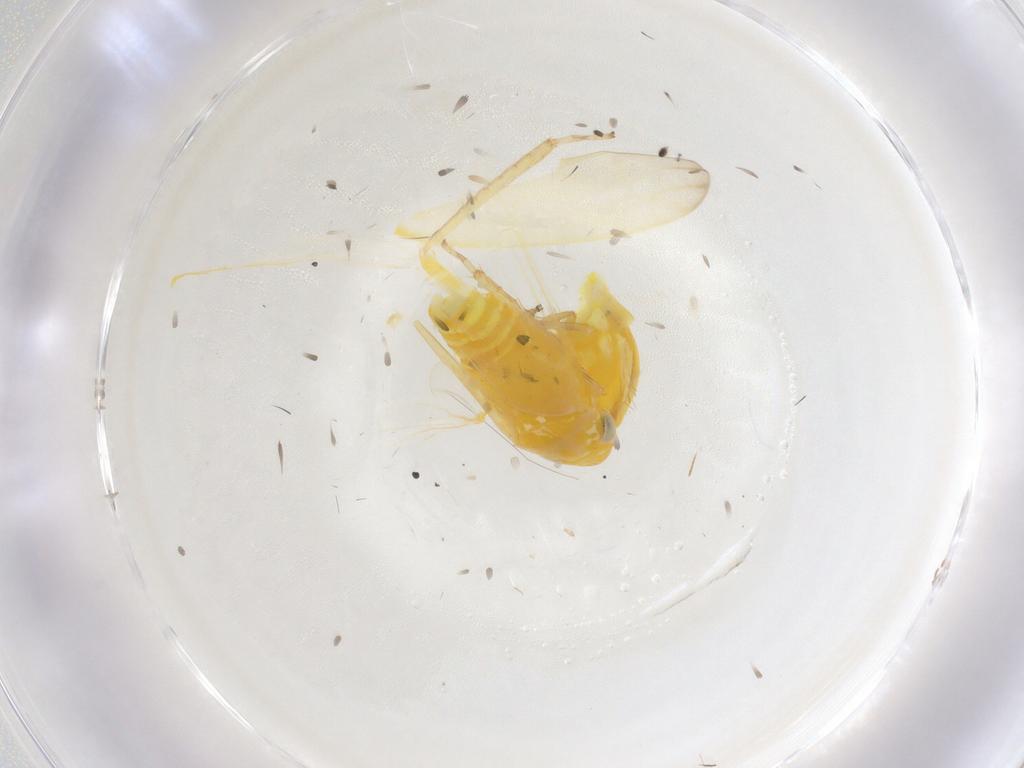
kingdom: Animalia
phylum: Arthropoda
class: Insecta
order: Hemiptera
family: Cicadellidae
